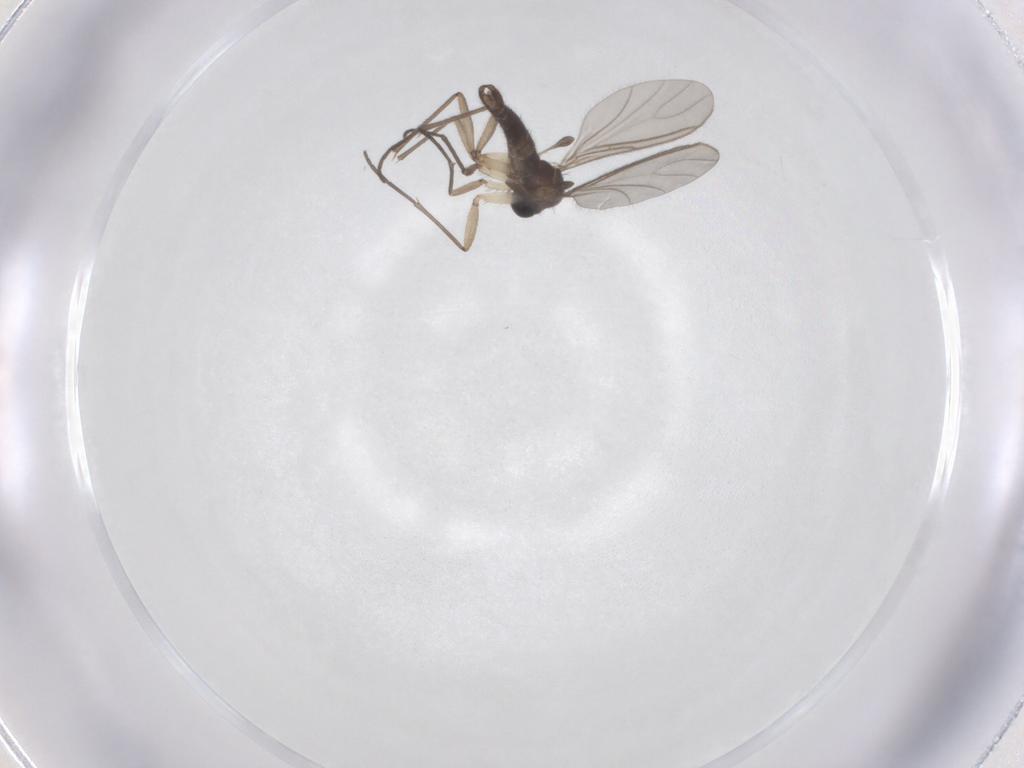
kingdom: Animalia
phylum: Arthropoda
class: Insecta
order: Diptera
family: Sciaridae
